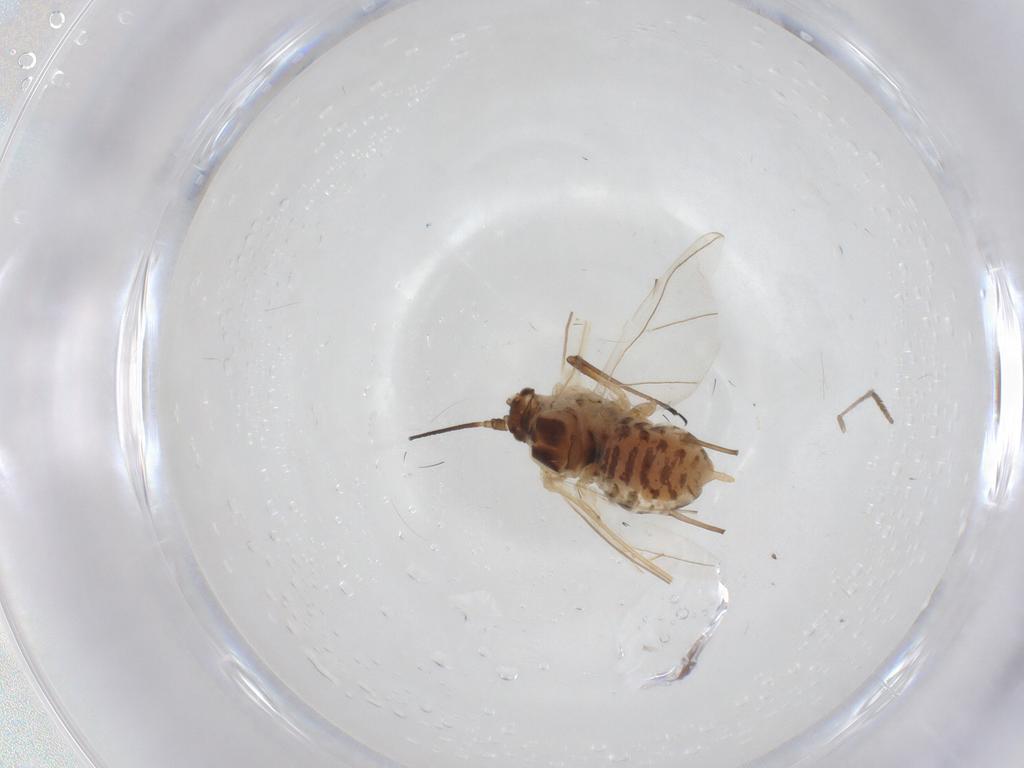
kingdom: Animalia
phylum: Arthropoda
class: Insecta
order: Hemiptera
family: Aphididae
